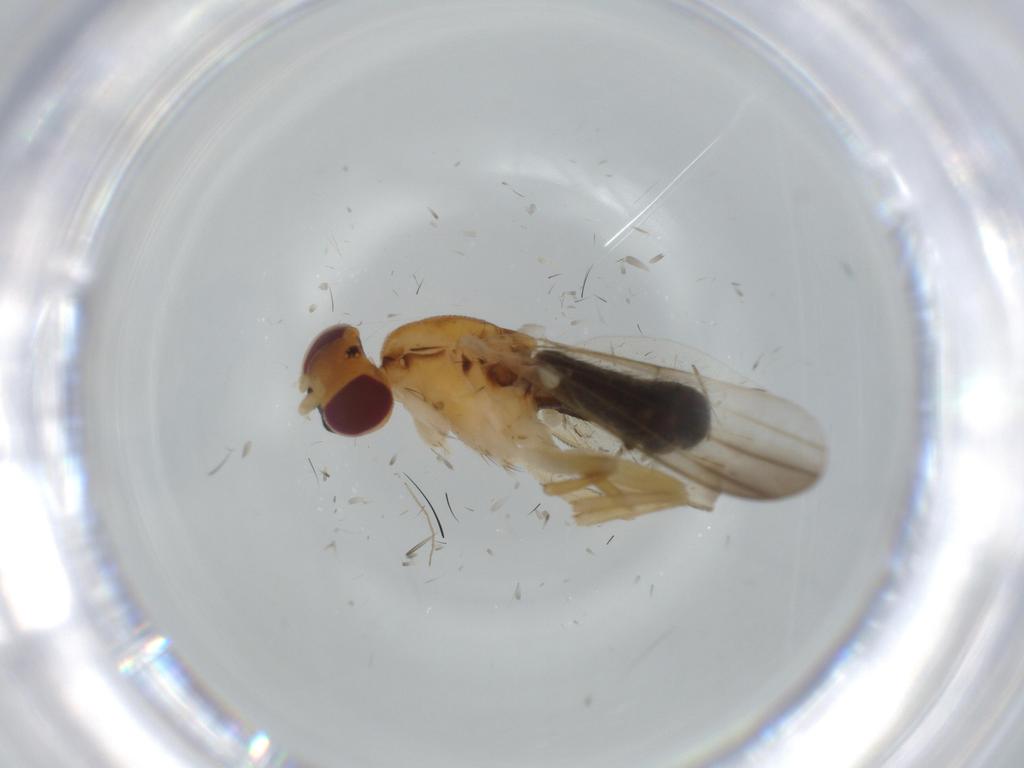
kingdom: Animalia
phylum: Arthropoda
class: Insecta
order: Diptera
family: Clusiidae
